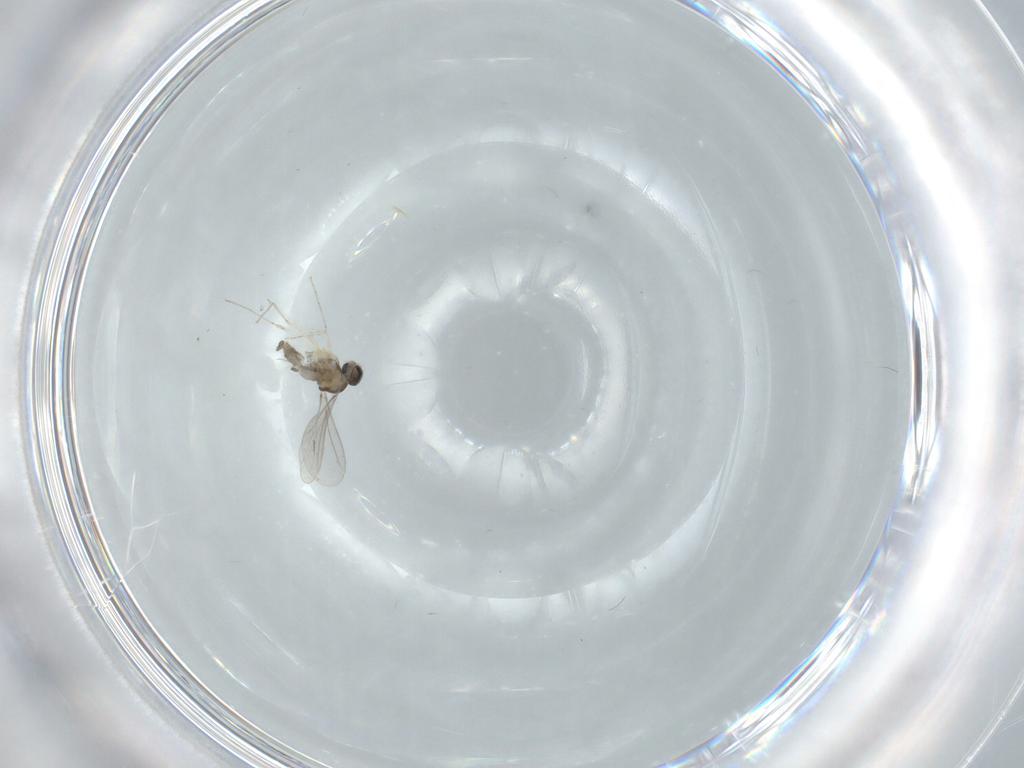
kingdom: Animalia
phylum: Arthropoda
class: Insecta
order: Diptera
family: Cecidomyiidae
